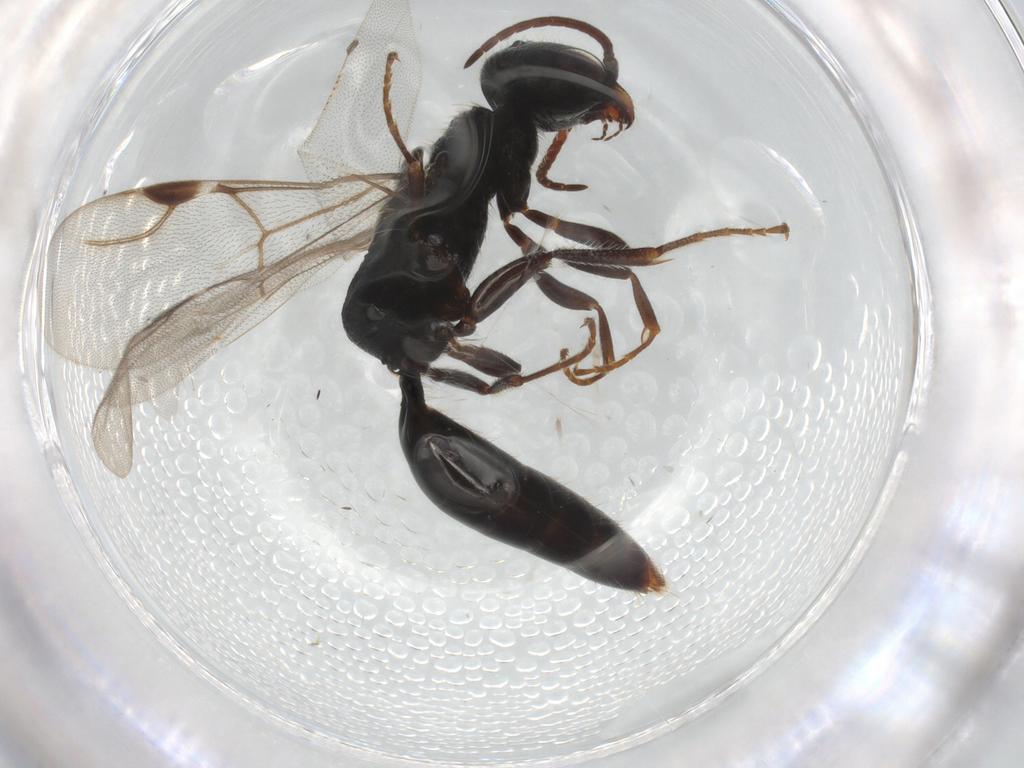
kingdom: Animalia
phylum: Arthropoda
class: Insecta
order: Hymenoptera
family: Bethylidae
